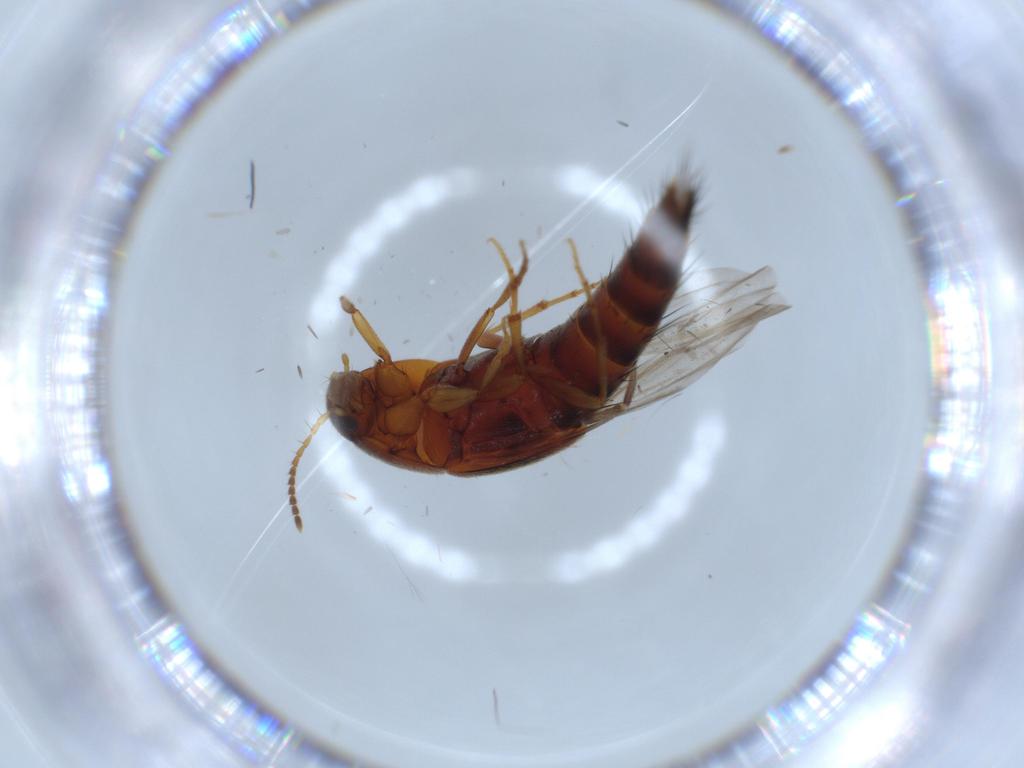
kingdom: Animalia
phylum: Arthropoda
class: Insecta
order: Coleoptera
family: Staphylinidae
